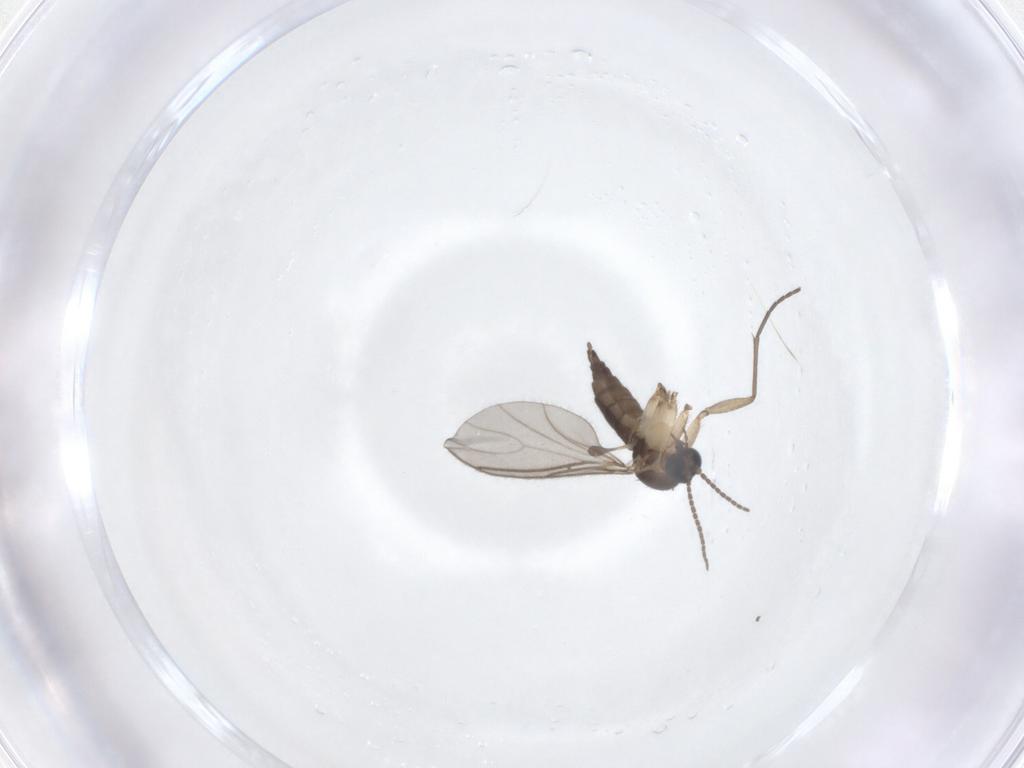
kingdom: Animalia
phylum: Arthropoda
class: Insecta
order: Diptera
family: Sciaridae
